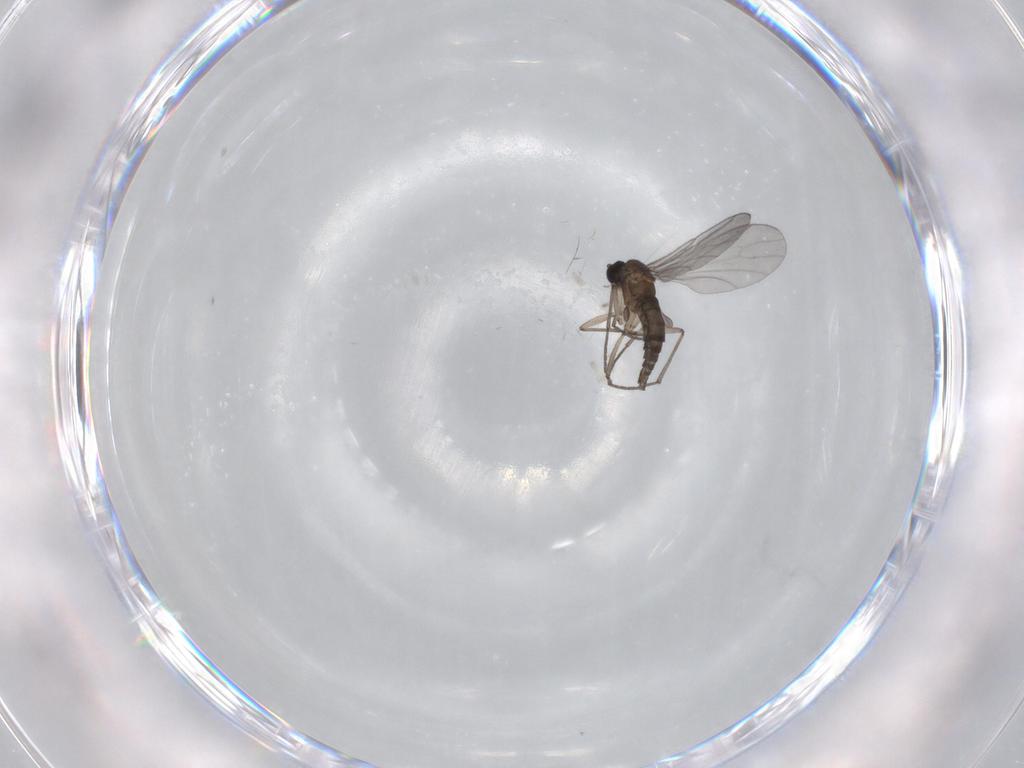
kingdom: Animalia
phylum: Arthropoda
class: Insecta
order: Diptera
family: Sciaridae
